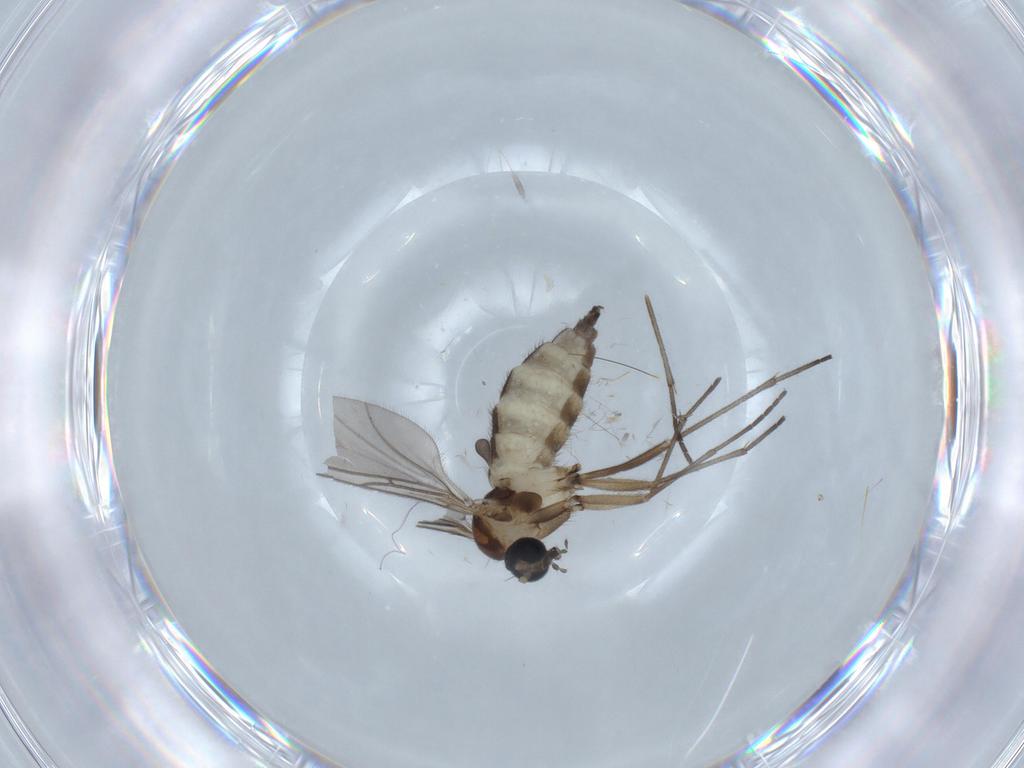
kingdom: Animalia
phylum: Arthropoda
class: Insecta
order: Diptera
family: Sciaridae
